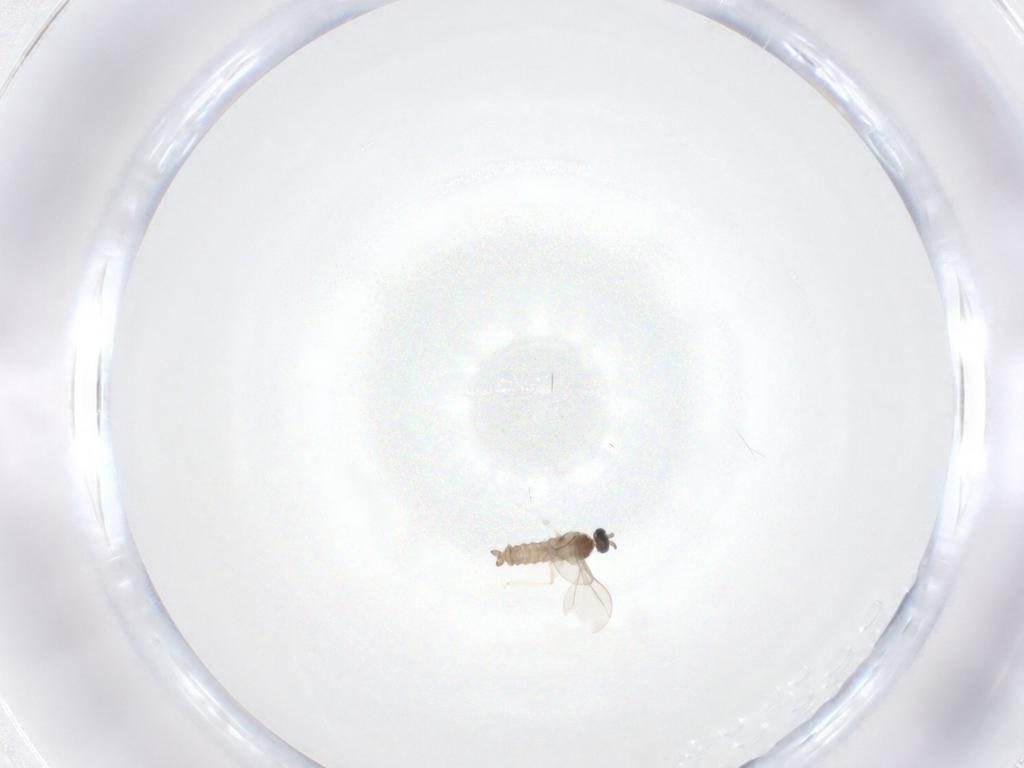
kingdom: Animalia
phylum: Arthropoda
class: Insecta
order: Diptera
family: Cecidomyiidae
